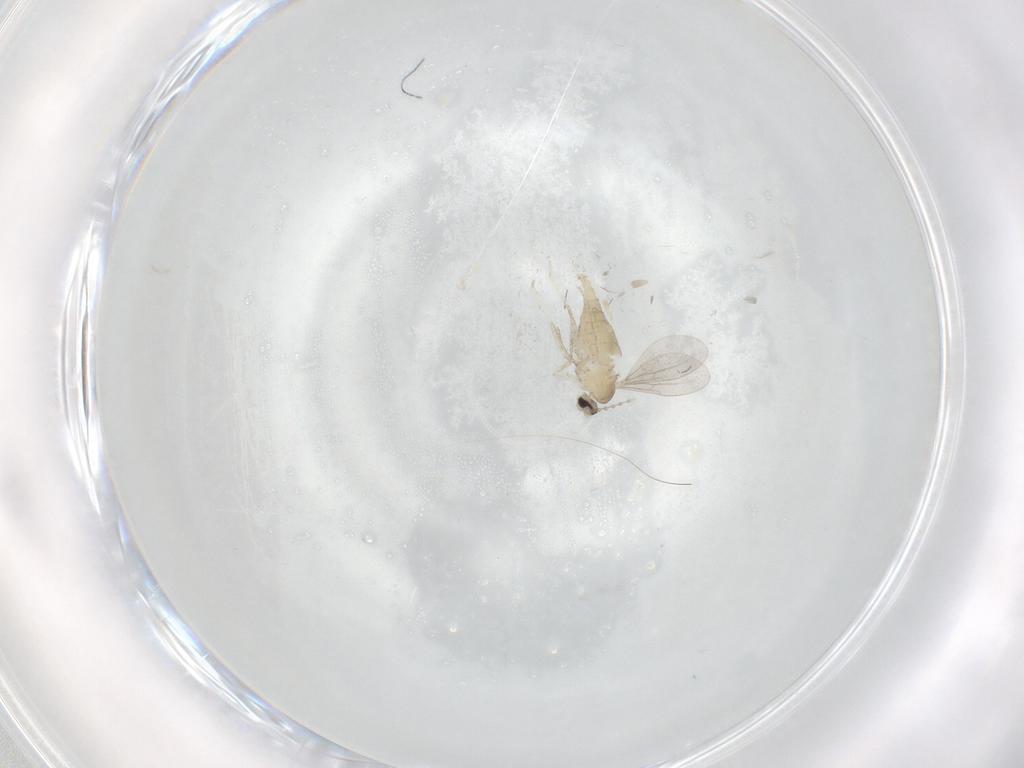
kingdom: Animalia
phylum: Arthropoda
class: Insecta
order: Diptera
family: Cecidomyiidae
